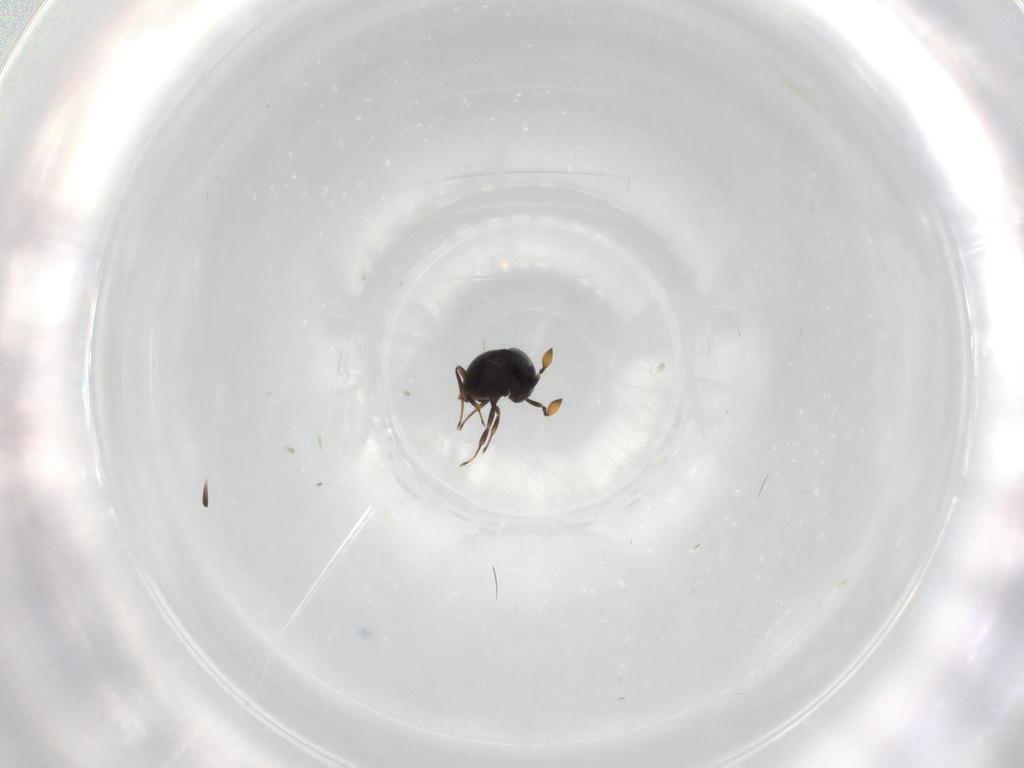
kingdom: Animalia
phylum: Arthropoda
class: Insecta
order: Hymenoptera
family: Scelionidae
